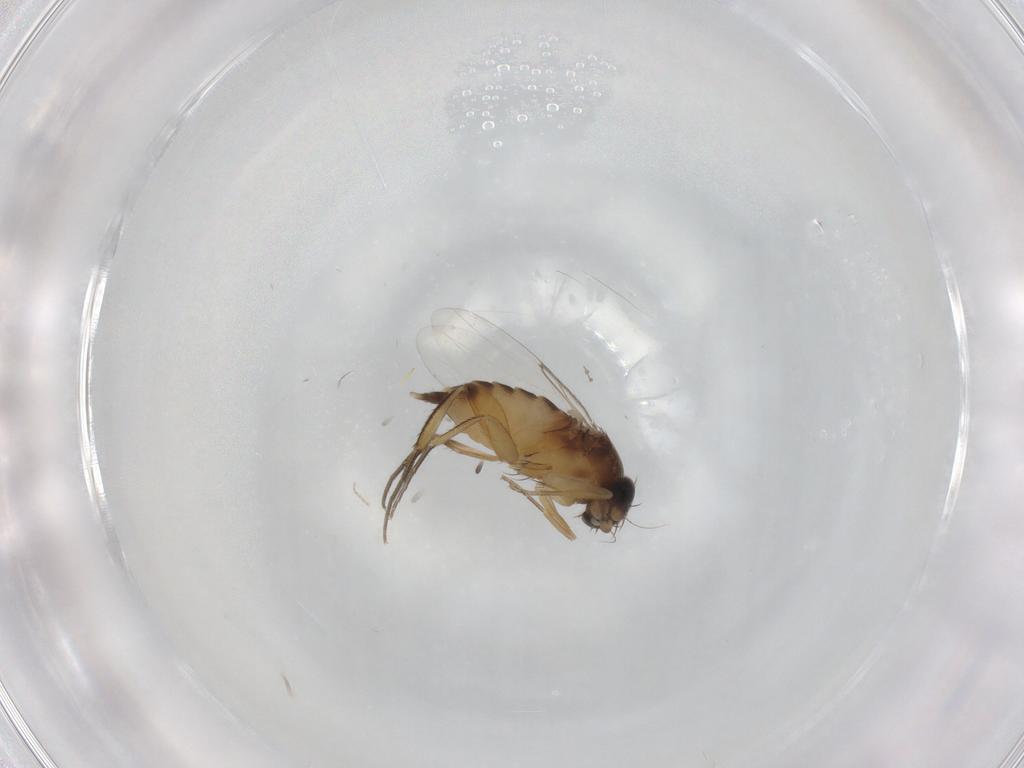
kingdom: Animalia
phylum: Arthropoda
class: Insecta
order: Diptera
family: Phoridae
